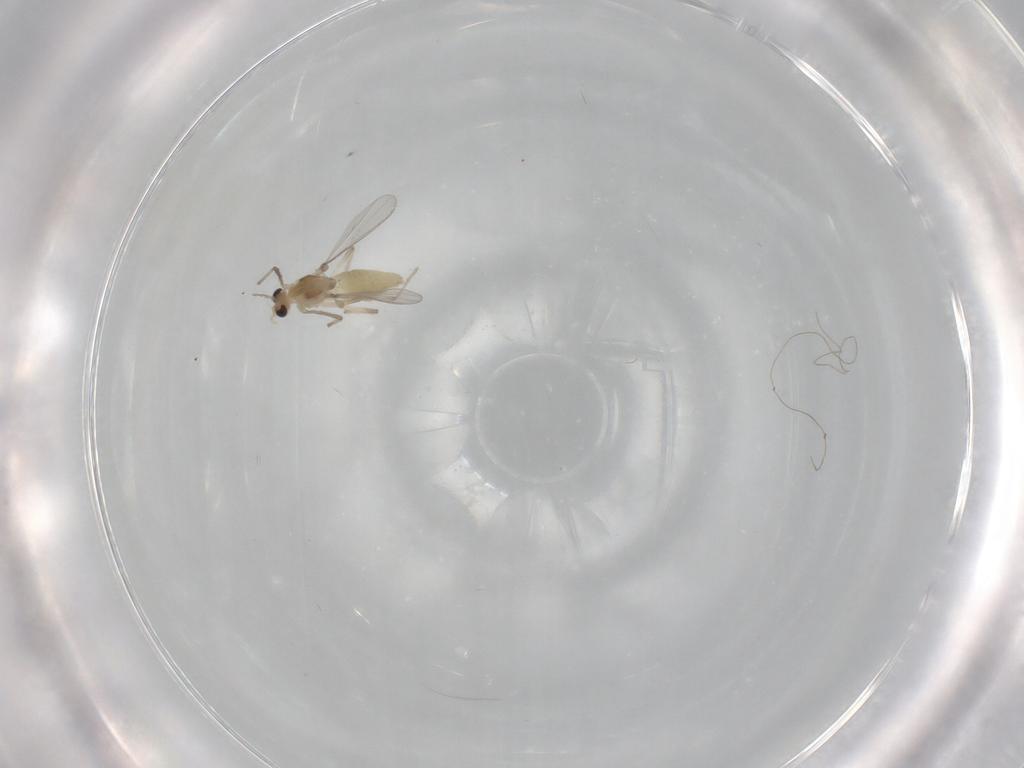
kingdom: Animalia
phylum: Arthropoda
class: Insecta
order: Diptera
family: Chironomidae
